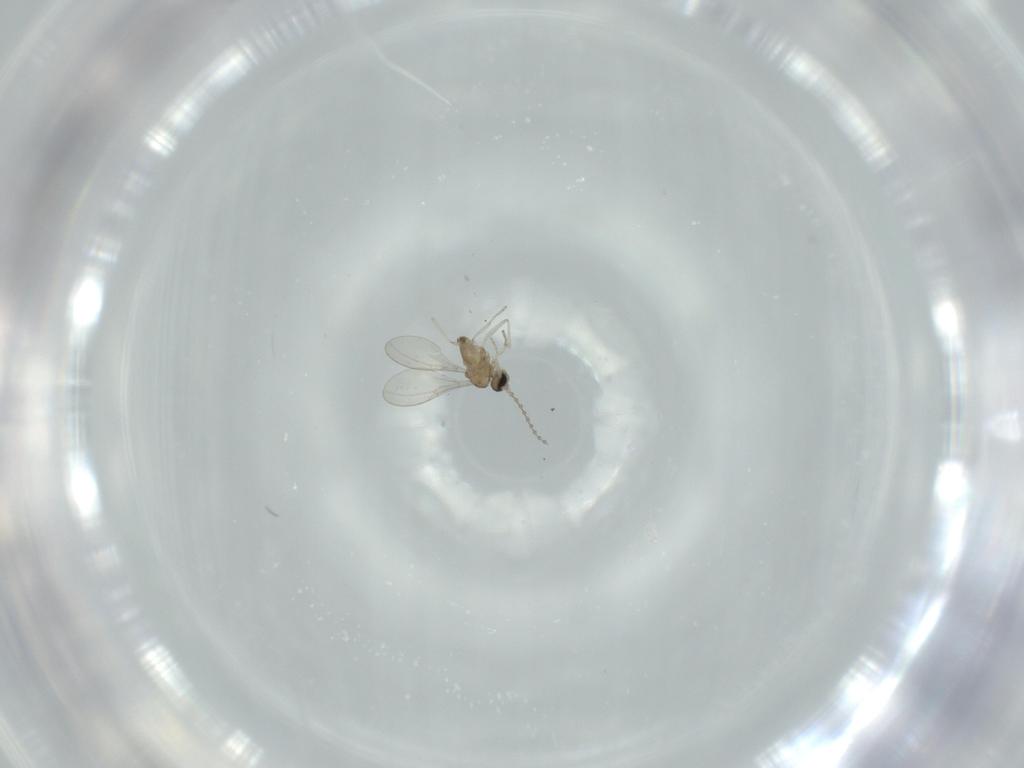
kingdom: Animalia
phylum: Arthropoda
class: Insecta
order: Diptera
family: Cecidomyiidae
